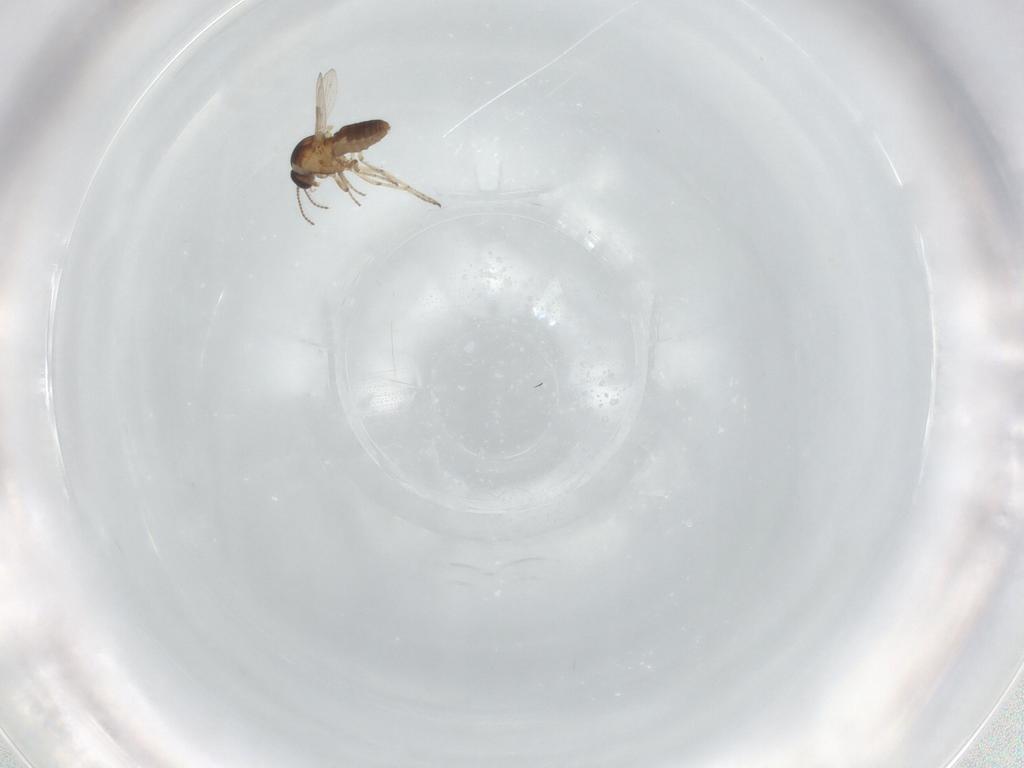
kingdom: Animalia
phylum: Arthropoda
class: Insecta
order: Diptera
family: Ceratopogonidae
